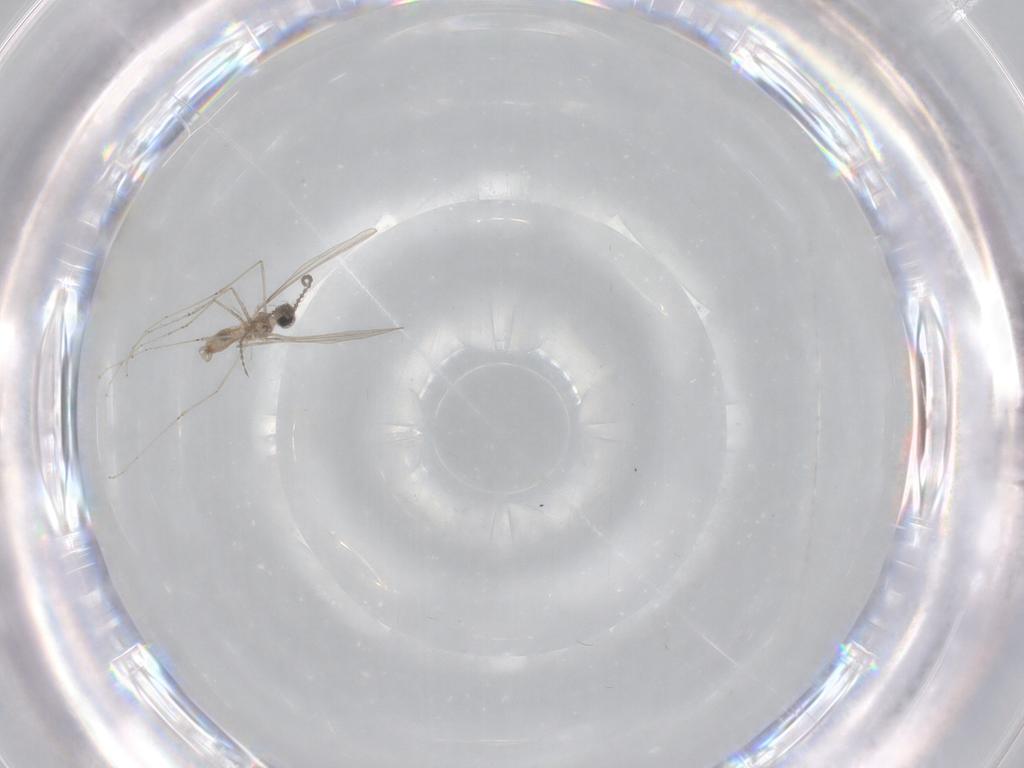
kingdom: Animalia
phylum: Arthropoda
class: Insecta
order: Diptera
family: Cecidomyiidae
